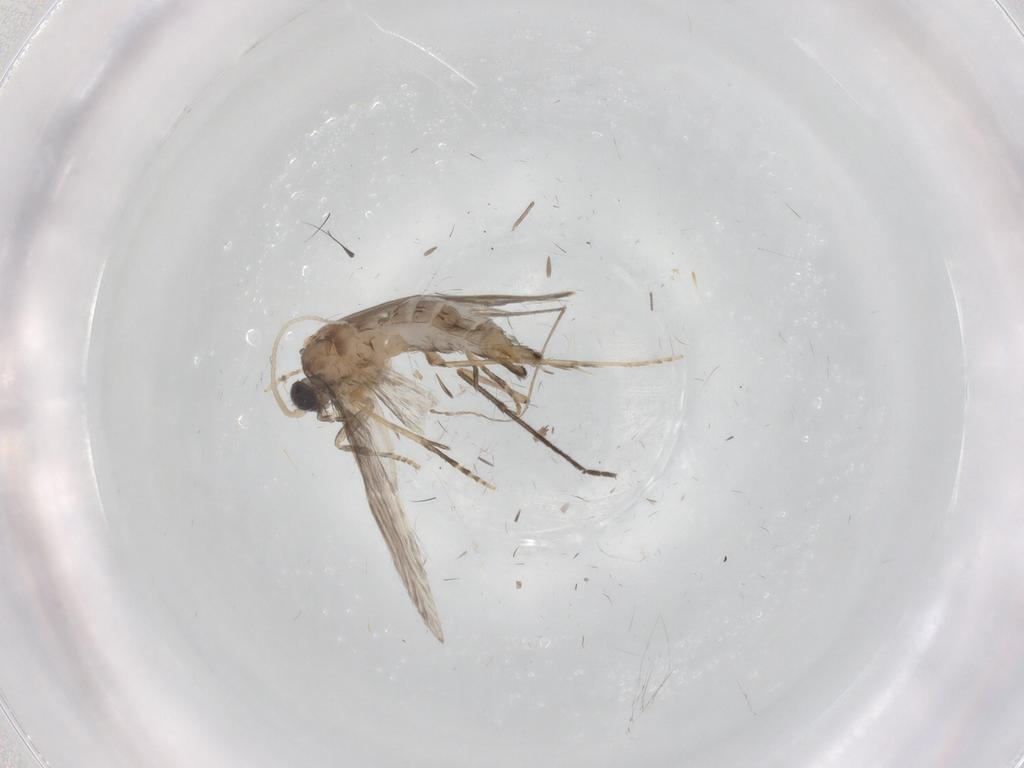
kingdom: Animalia
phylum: Arthropoda
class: Insecta
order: Trichoptera
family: Hydroptilidae
